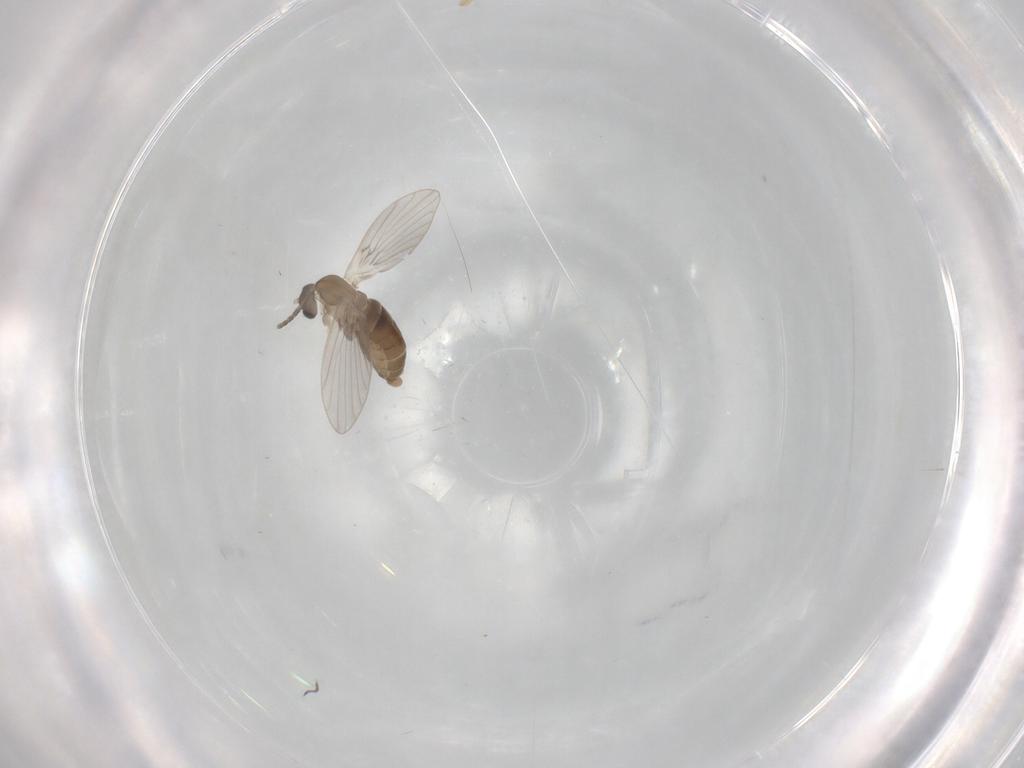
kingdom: Animalia
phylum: Arthropoda
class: Insecta
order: Diptera
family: Psychodidae
